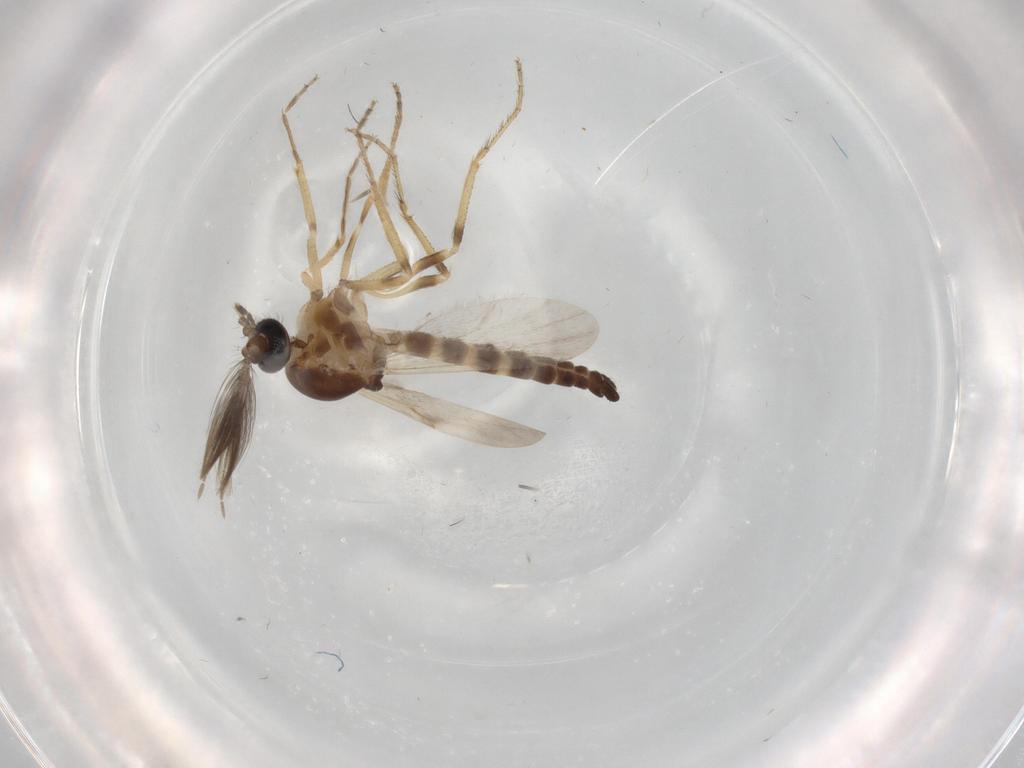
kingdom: Animalia
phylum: Arthropoda
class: Insecta
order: Diptera
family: Ceratopogonidae
